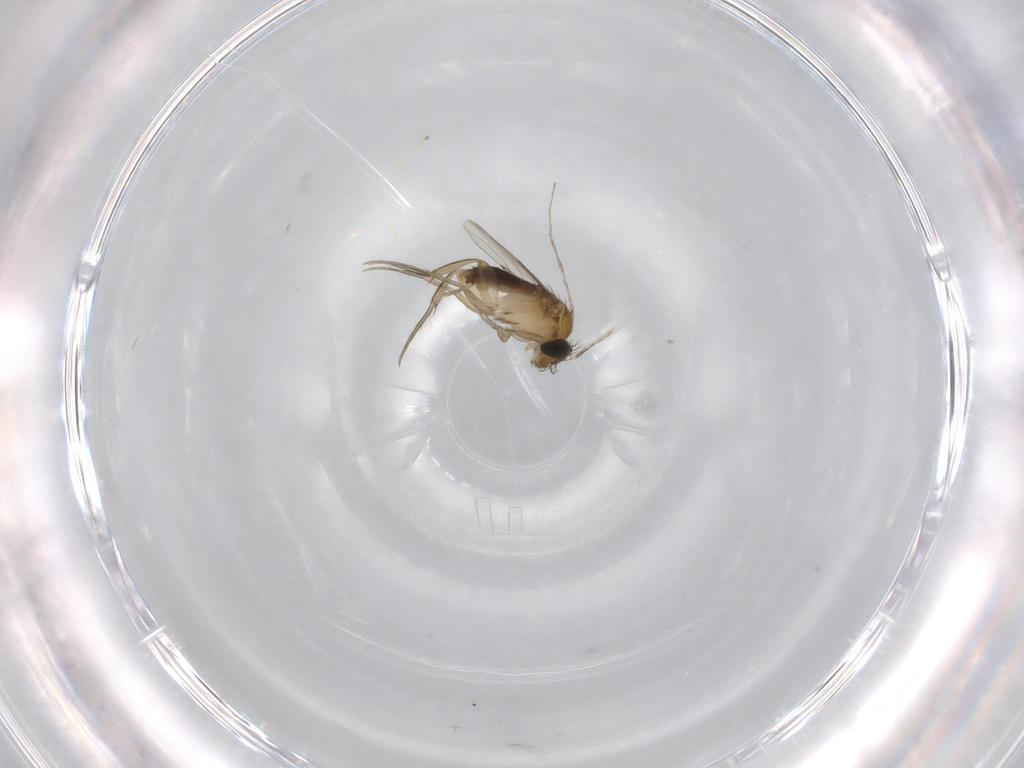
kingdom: Animalia
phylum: Arthropoda
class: Insecta
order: Diptera
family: Phoridae
